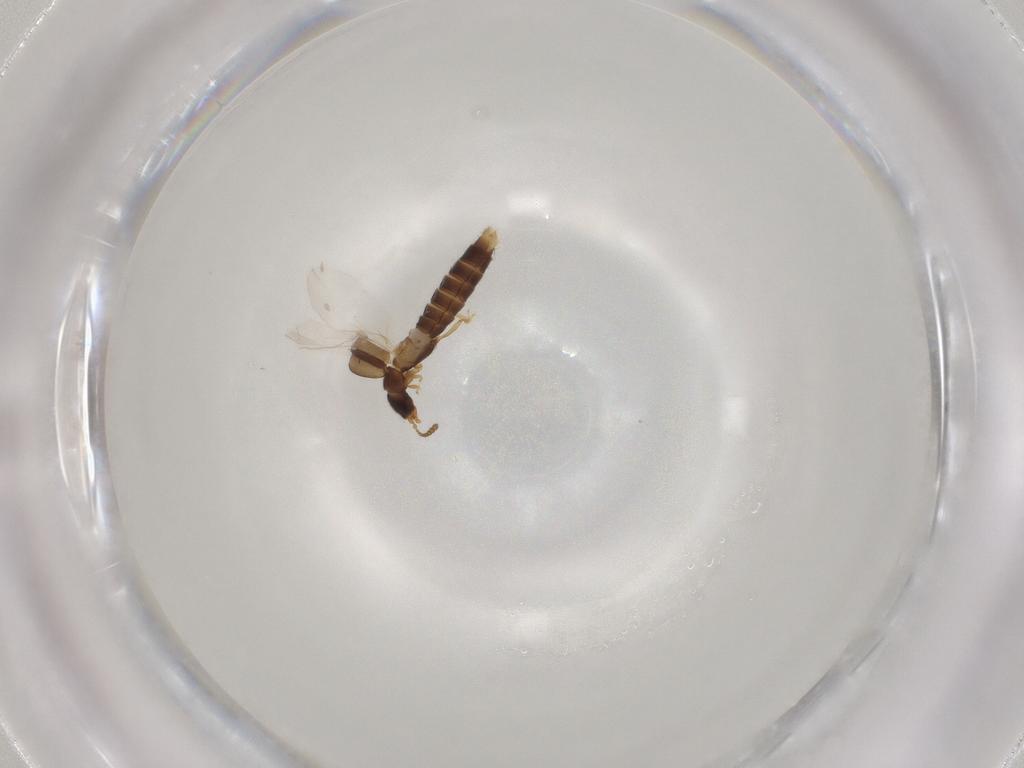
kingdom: Animalia
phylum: Arthropoda
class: Insecta
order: Coleoptera
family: Staphylinidae
